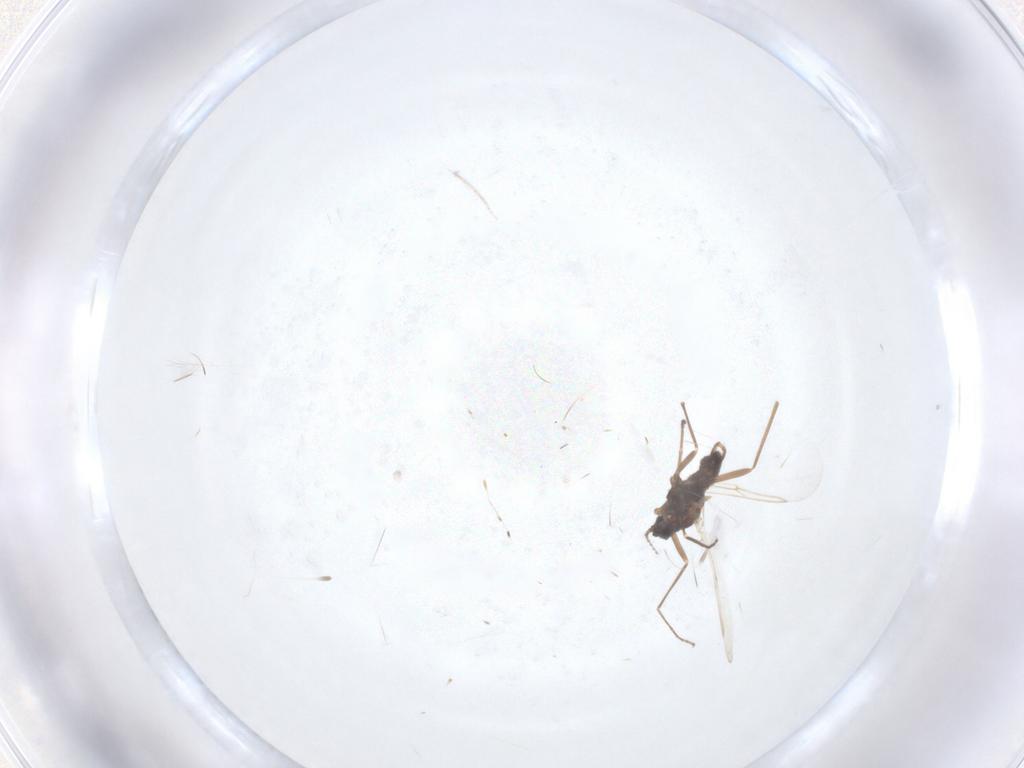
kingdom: Animalia
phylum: Arthropoda
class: Insecta
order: Diptera
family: Cecidomyiidae
